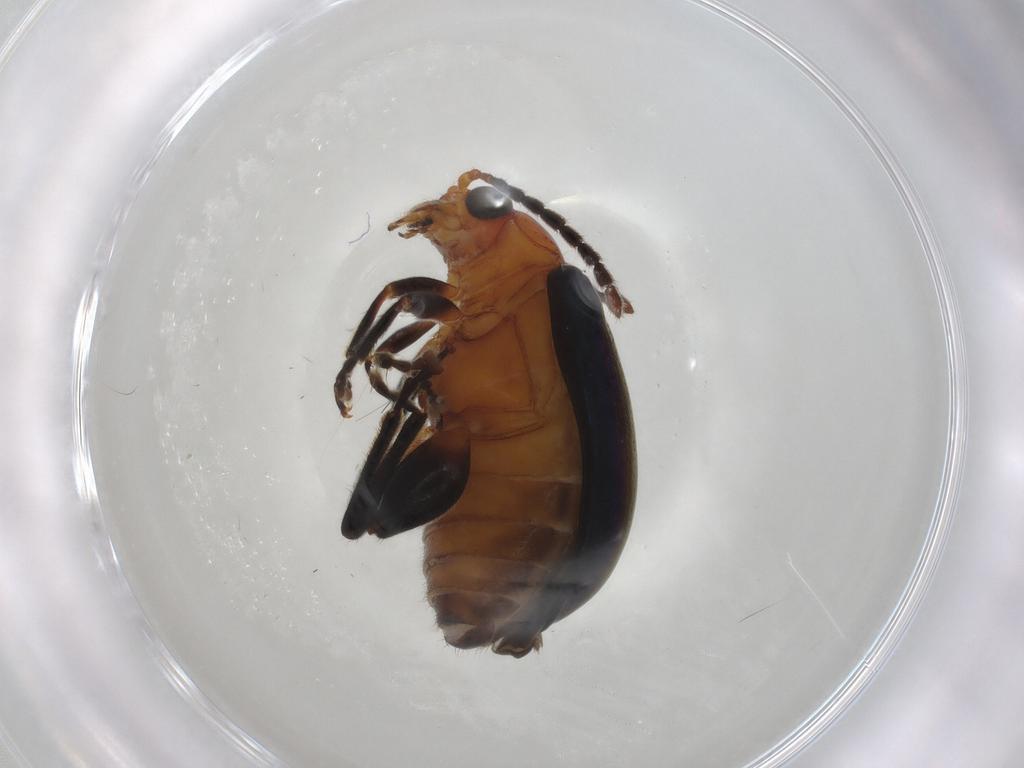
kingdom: Animalia
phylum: Arthropoda
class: Insecta
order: Coleoptera
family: Chrysomelidae
